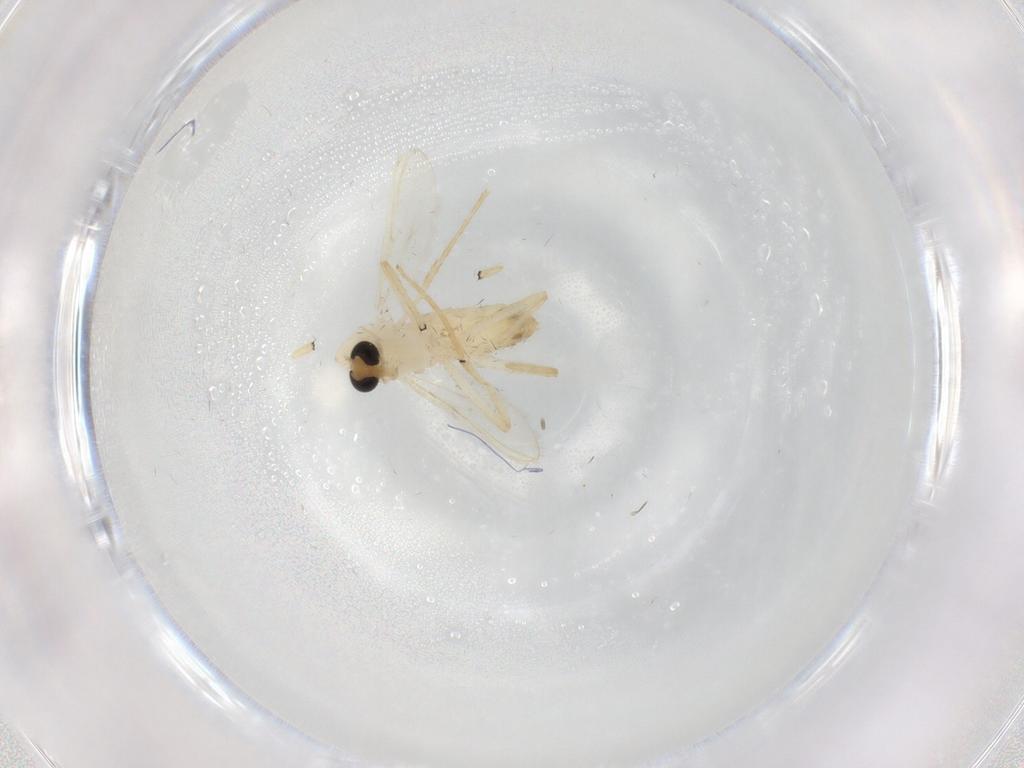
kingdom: Animalia
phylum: Arthropoda
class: Insecta
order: Diptera
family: Chironomidae
